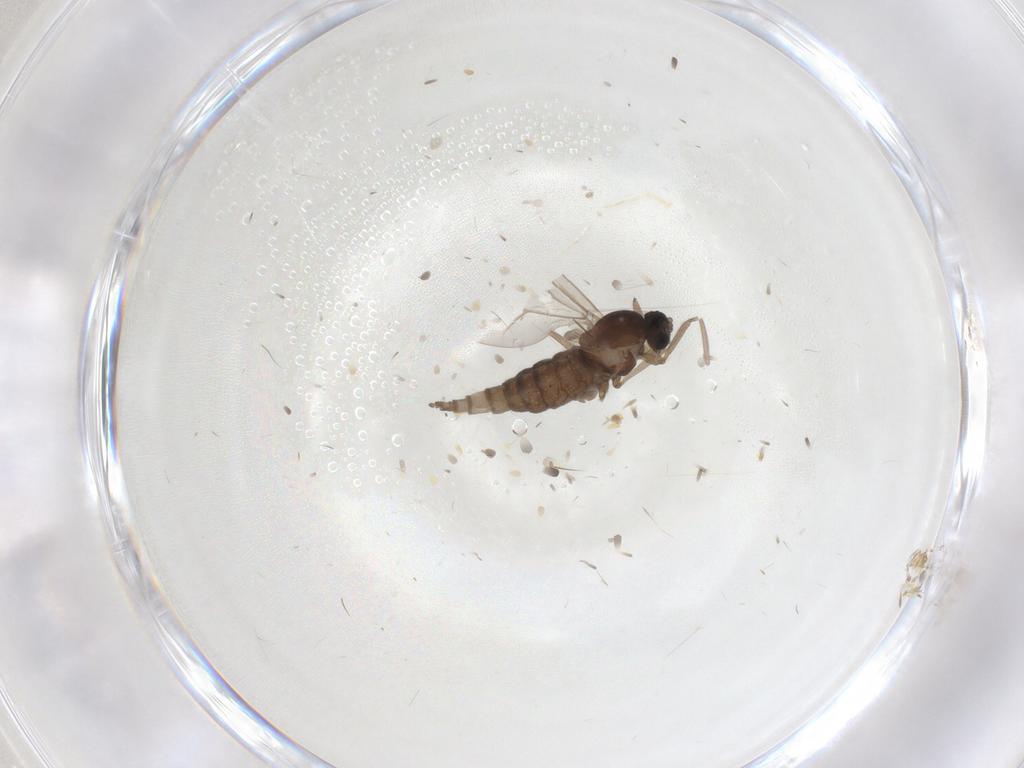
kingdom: Animalia
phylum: Arthropoda
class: Insecta
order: Diptera
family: Cecidomyiidae
